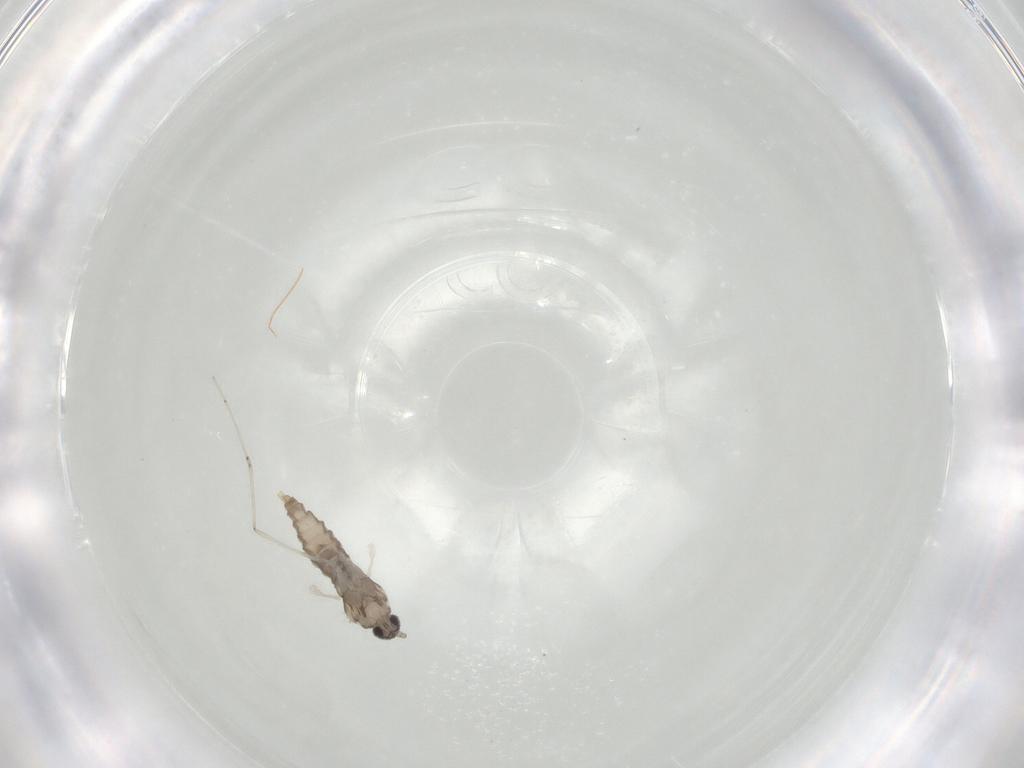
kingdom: Animalia
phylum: Arthropoda
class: Insecta
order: Diptera
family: Cecidomyiidae
